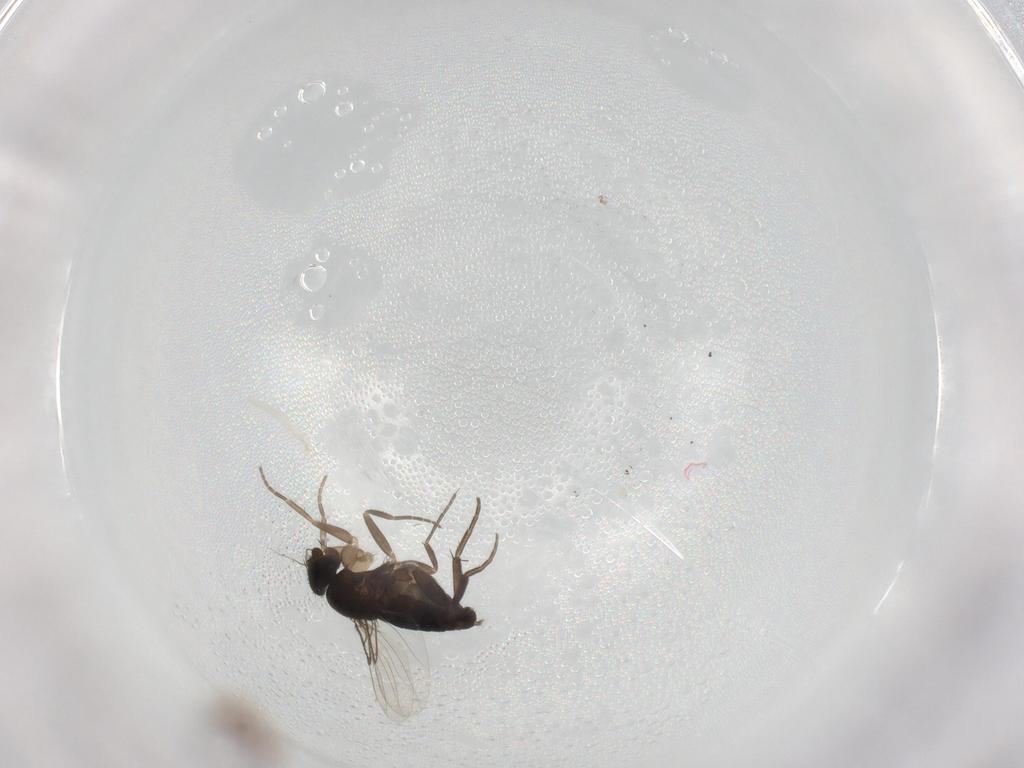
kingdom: Animalia
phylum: Arthropoda
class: Insecta
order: Diptera
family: Phoridae
